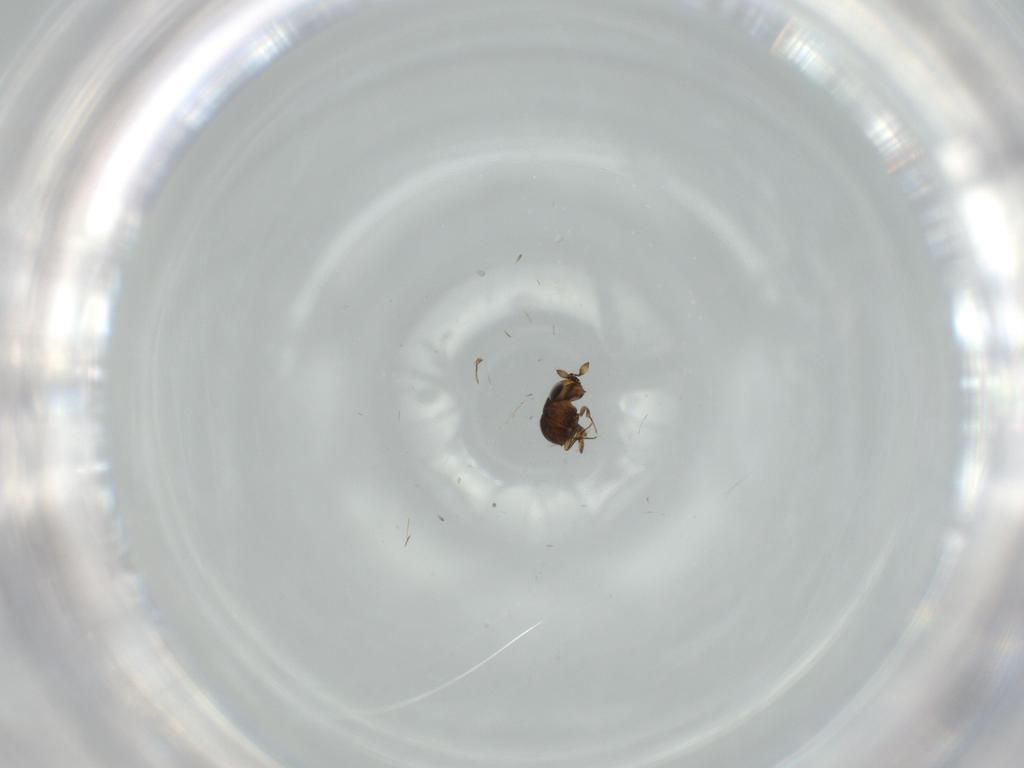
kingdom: Animalia
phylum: Arthropoda
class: Insecta
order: Hymenoptera
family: Scelionidae
